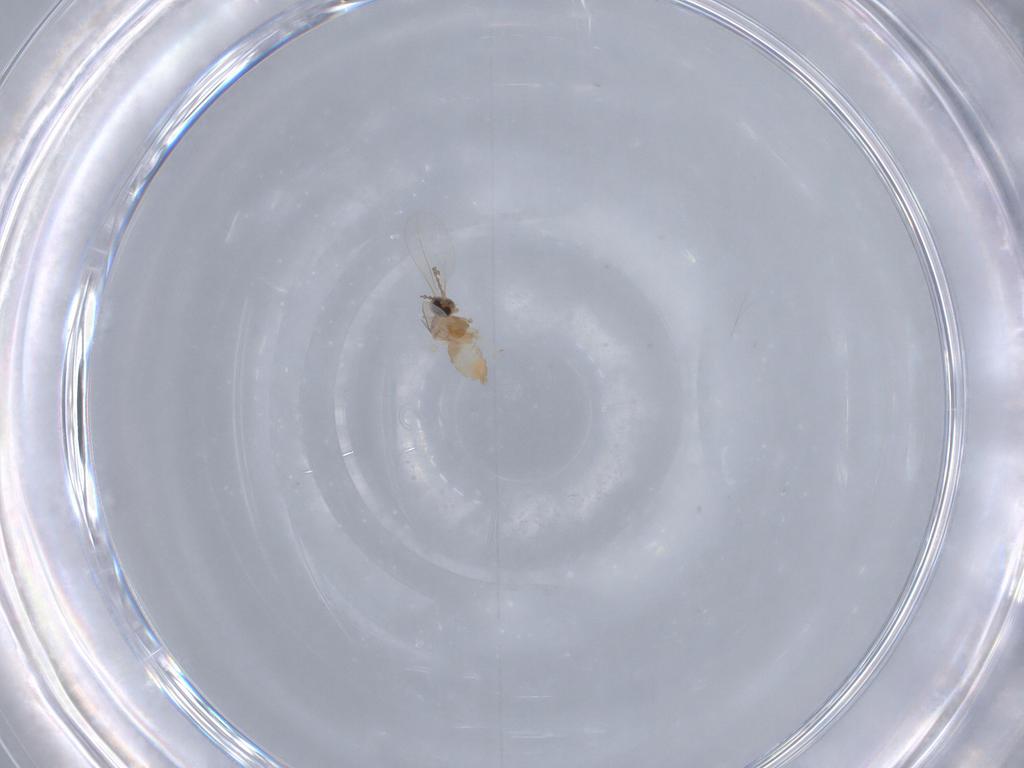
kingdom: Animalia
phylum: Arthropoda
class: Insecta
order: Diptera
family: Cecidomyiidae
